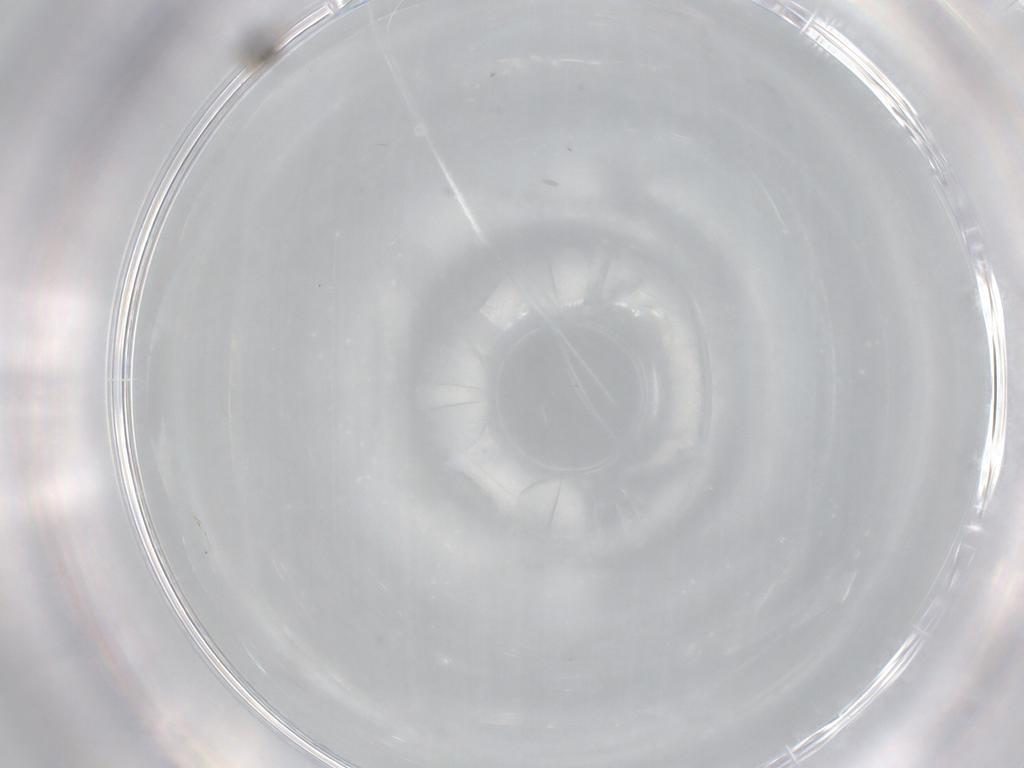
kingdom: Animalia
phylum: Arthropoda
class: Insecta
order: Diptera
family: Cecidomyiidae
